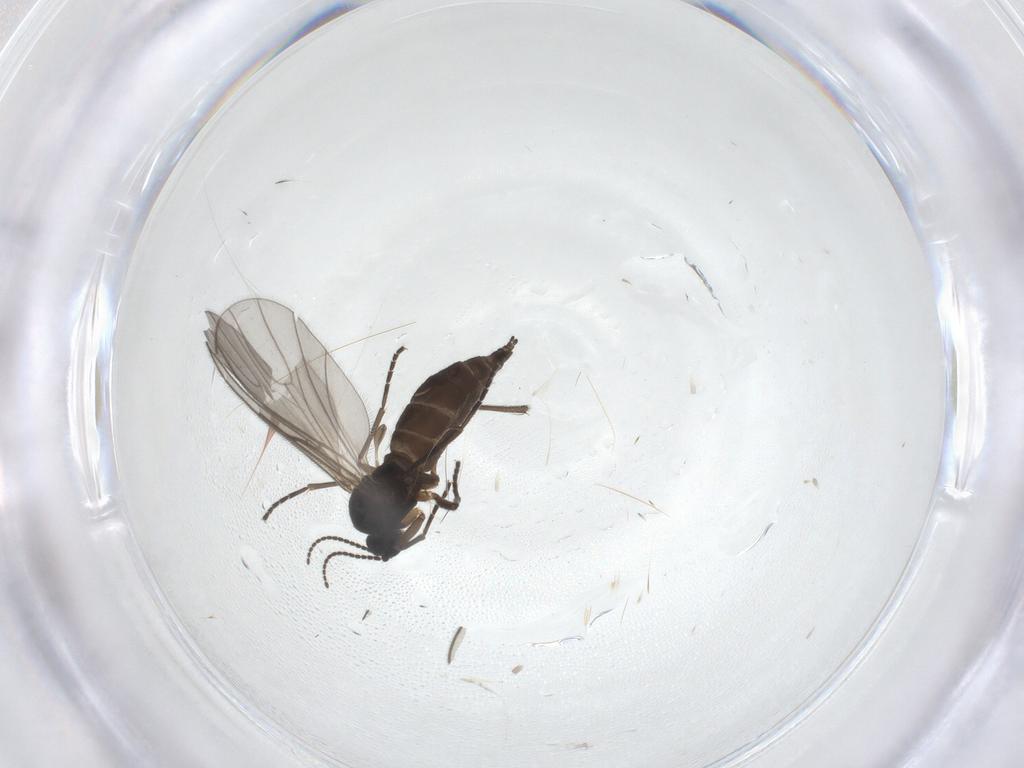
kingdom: Animalia
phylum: Arthropoda
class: Insecta
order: Diptera
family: Sciaridae
